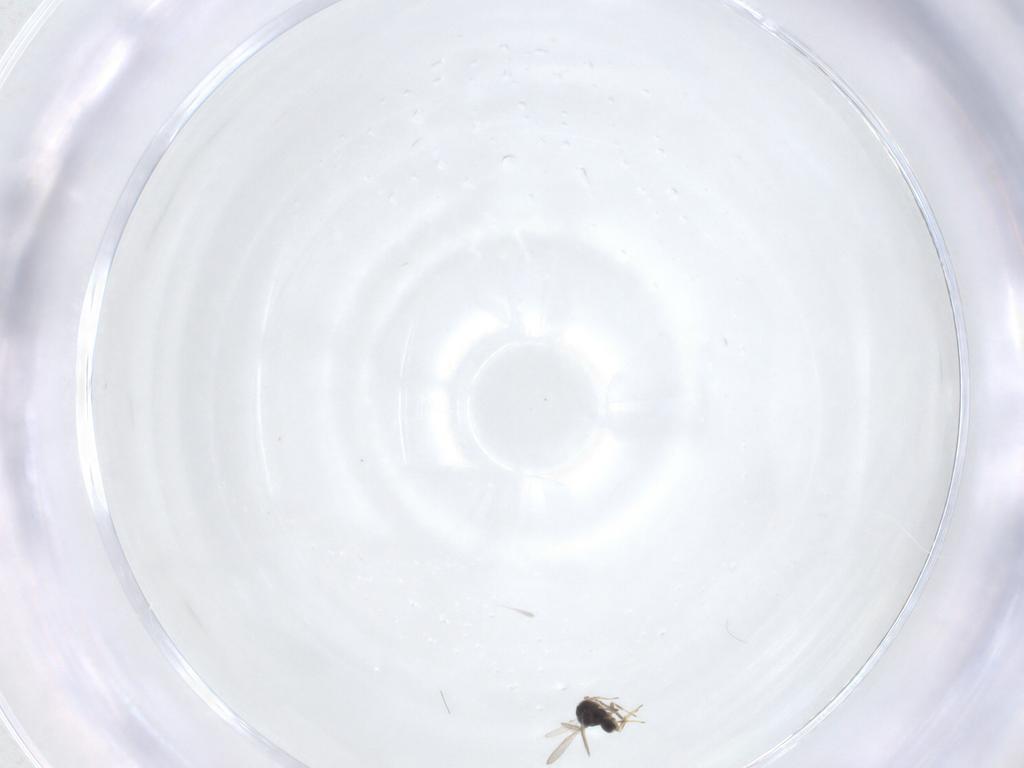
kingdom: Animalia
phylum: Arthropoda
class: Insecta
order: Hymenoptera
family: Scelionidae
